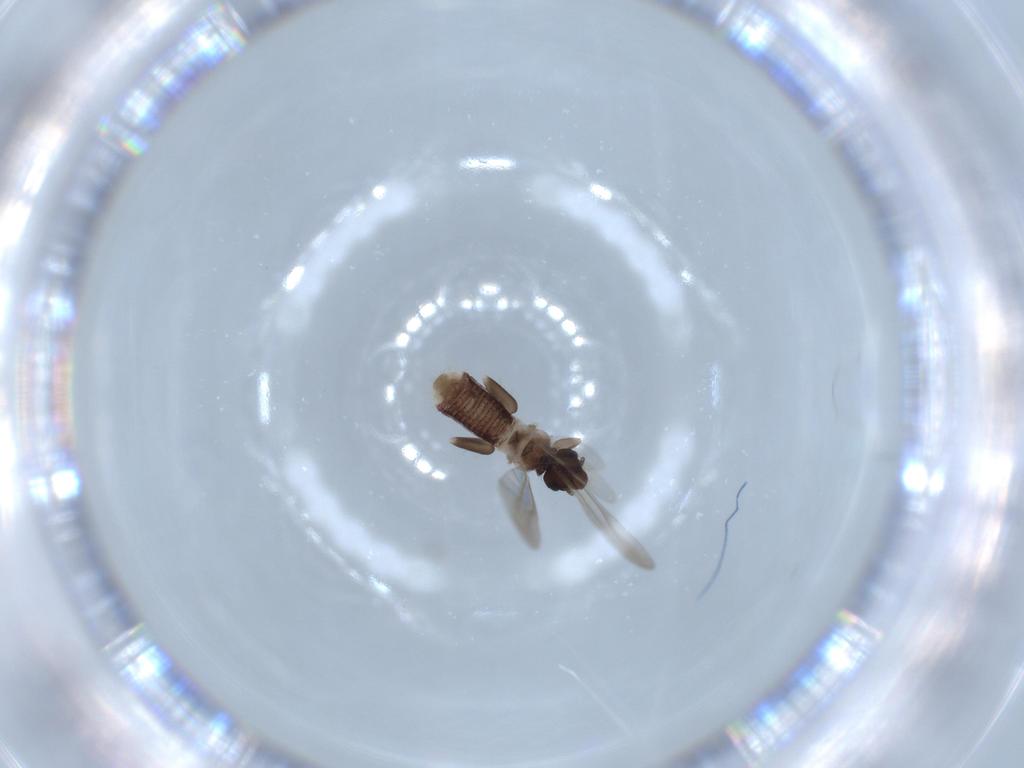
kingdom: Animalia
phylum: Arthropoda
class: Insecta
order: Psocodea
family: Liposcelididae
